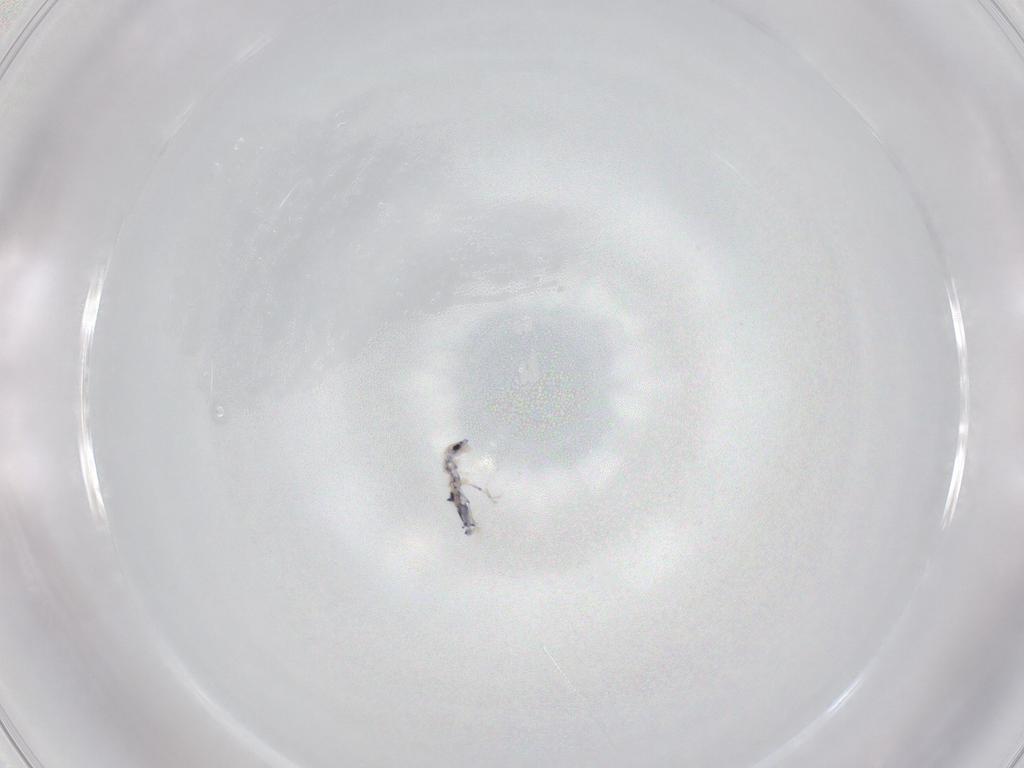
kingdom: Animalia
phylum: Arthropoda
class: Collembola
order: Entomobryomorpha
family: Entomobryidae
